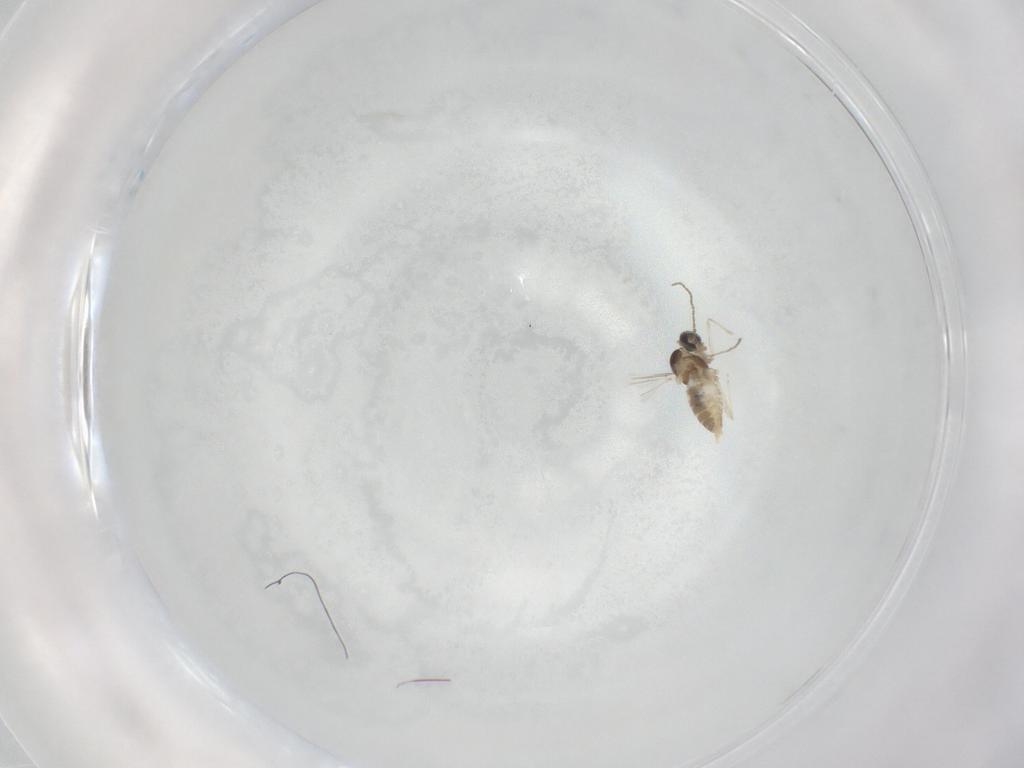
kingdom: Animalia
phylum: Arthropoda
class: Insecta
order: Diptera
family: Cecidomyiidae
